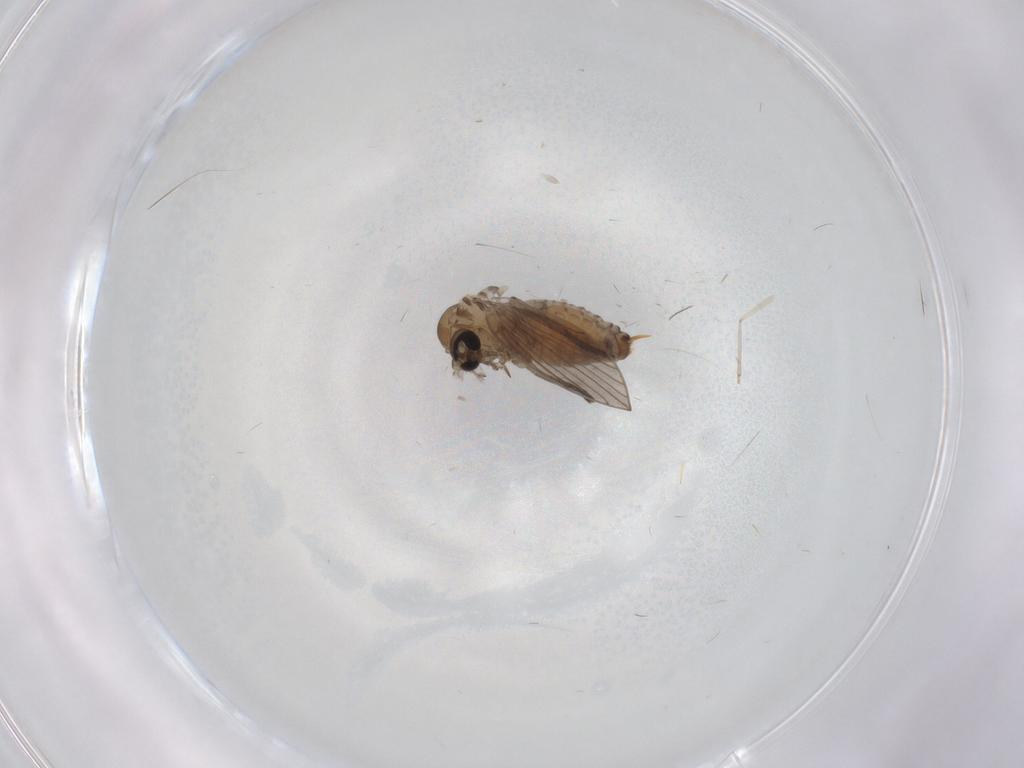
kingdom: Animalia
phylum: Arthropoda
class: Insecta
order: Diptera
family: Psychodidae
